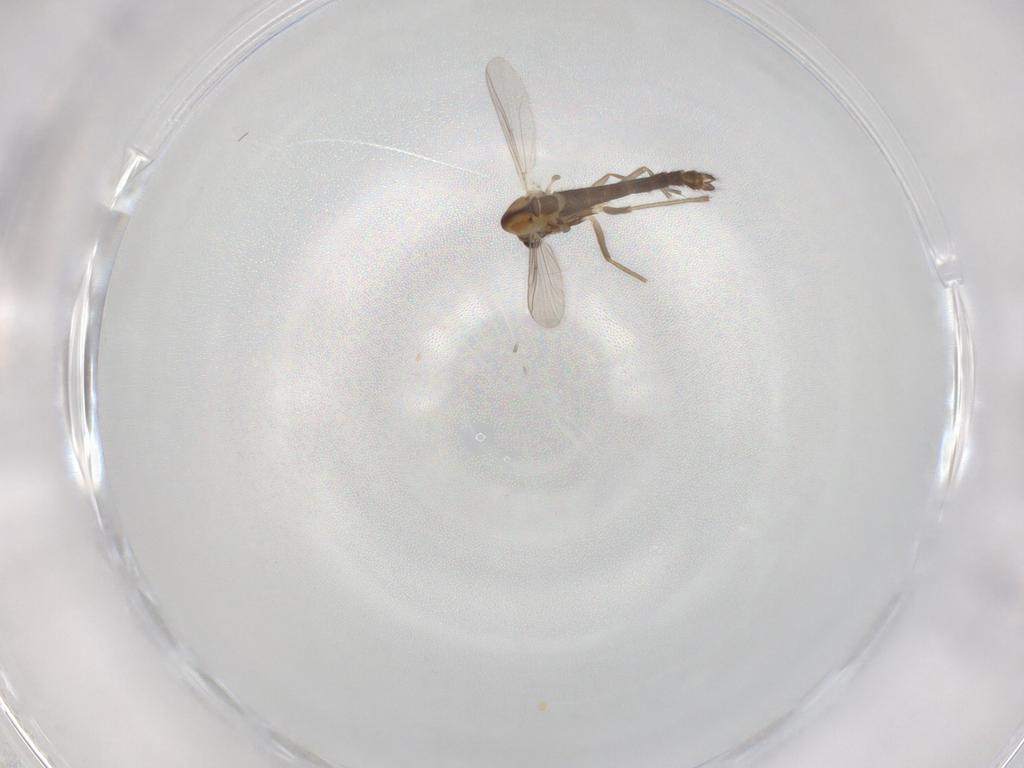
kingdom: Animalia
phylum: Arthropoda
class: Insecta
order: Diptera
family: Chironomidae
